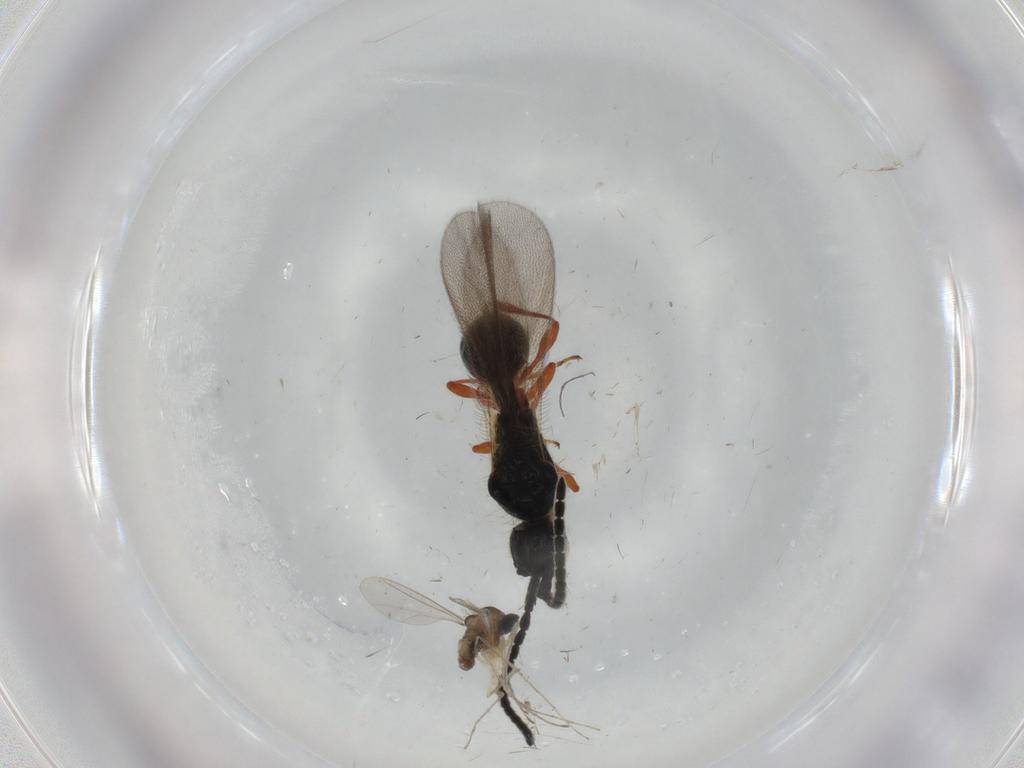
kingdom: Animalia
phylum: Arthropoda
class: Insecta
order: Diptera
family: Cecidomyiidae
